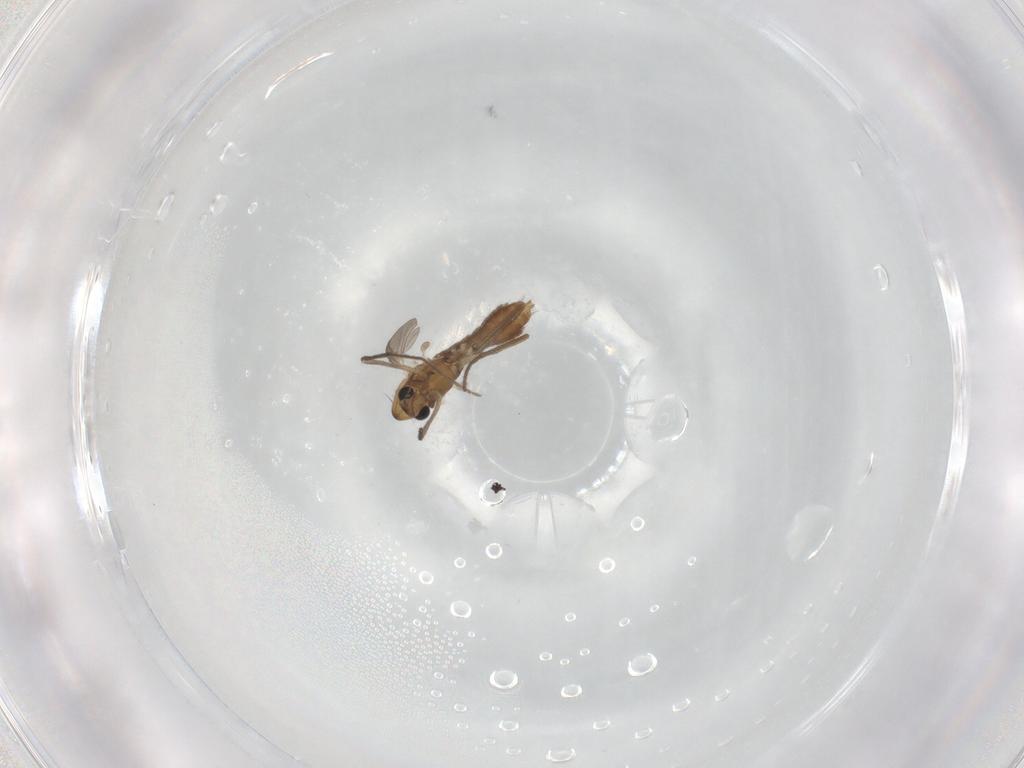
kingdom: Animalia
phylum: Arthropoda
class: Insecta
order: Diptera
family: Chironomidae
